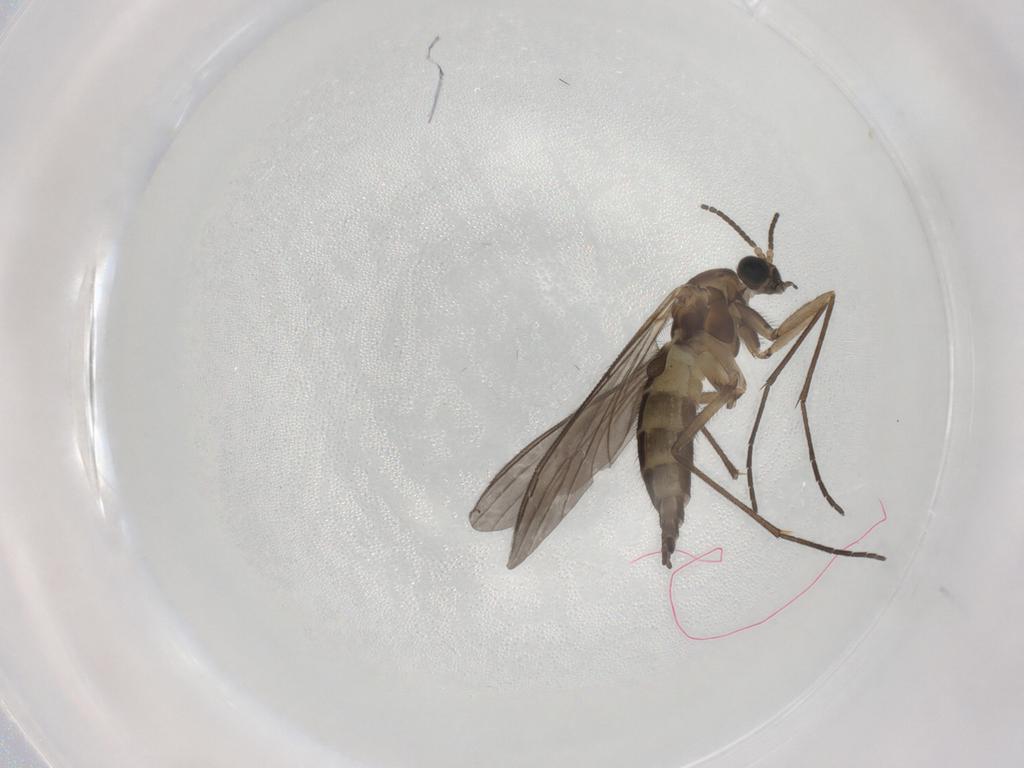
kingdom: Animalia
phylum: Arthropoda
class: Insecta
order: Diptera
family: Sciaridae
